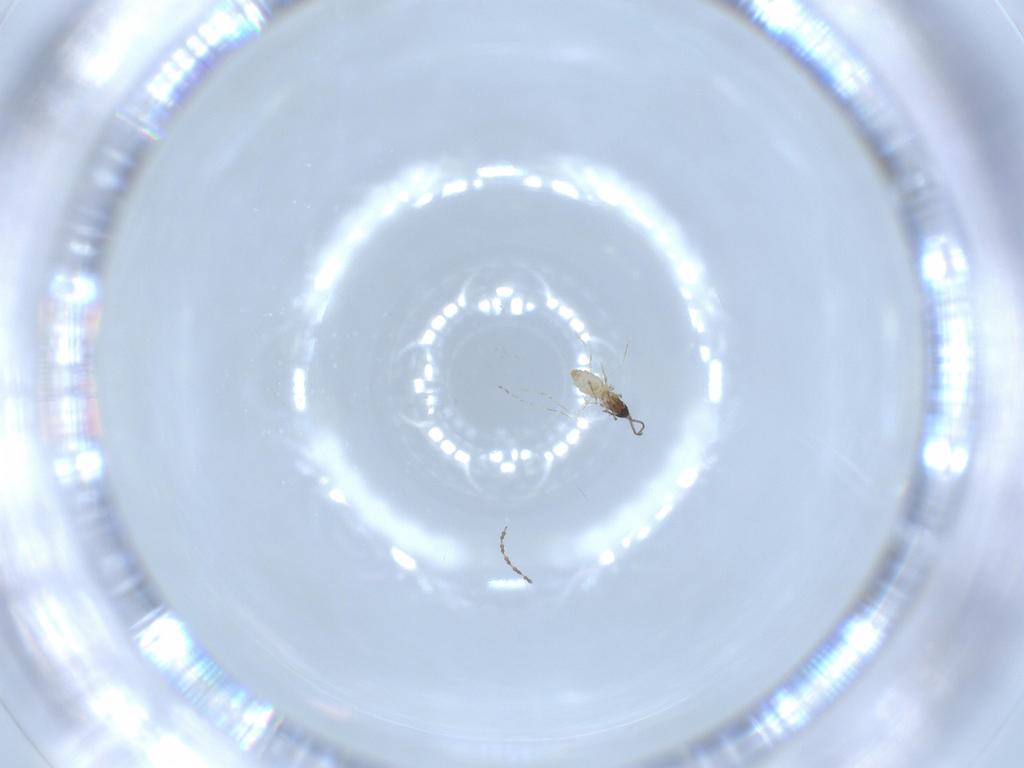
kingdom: Animalia
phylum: Arthropoda
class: Insecta
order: Diptera
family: Cecidomyiidae
